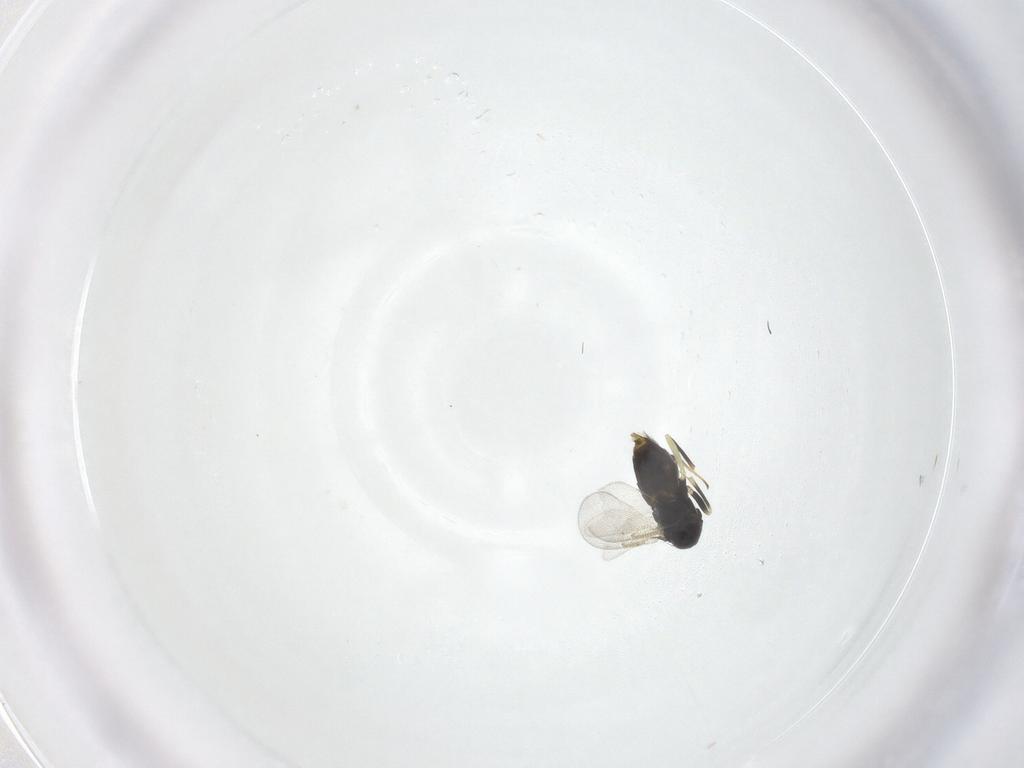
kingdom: Animalia
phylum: Arthropoda
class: Insecta
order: Hymenoptera
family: Aphelinidae
